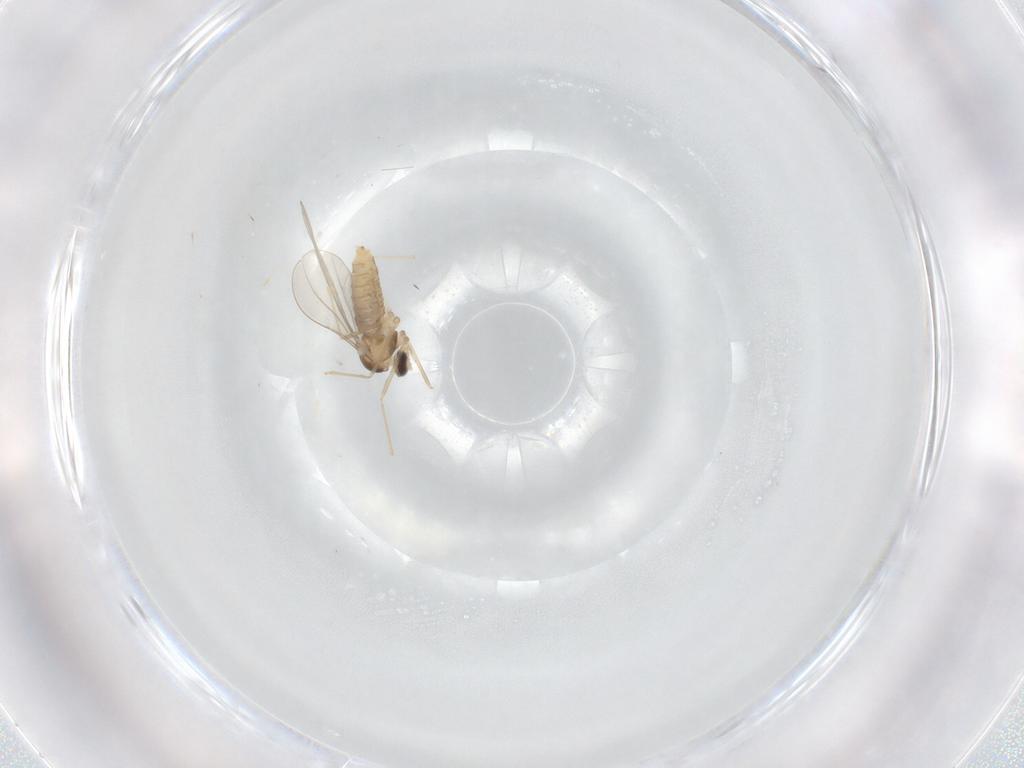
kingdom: Animalia
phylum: Arthropoda
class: Insecta
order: Diptera
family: Cecidomyiidae
